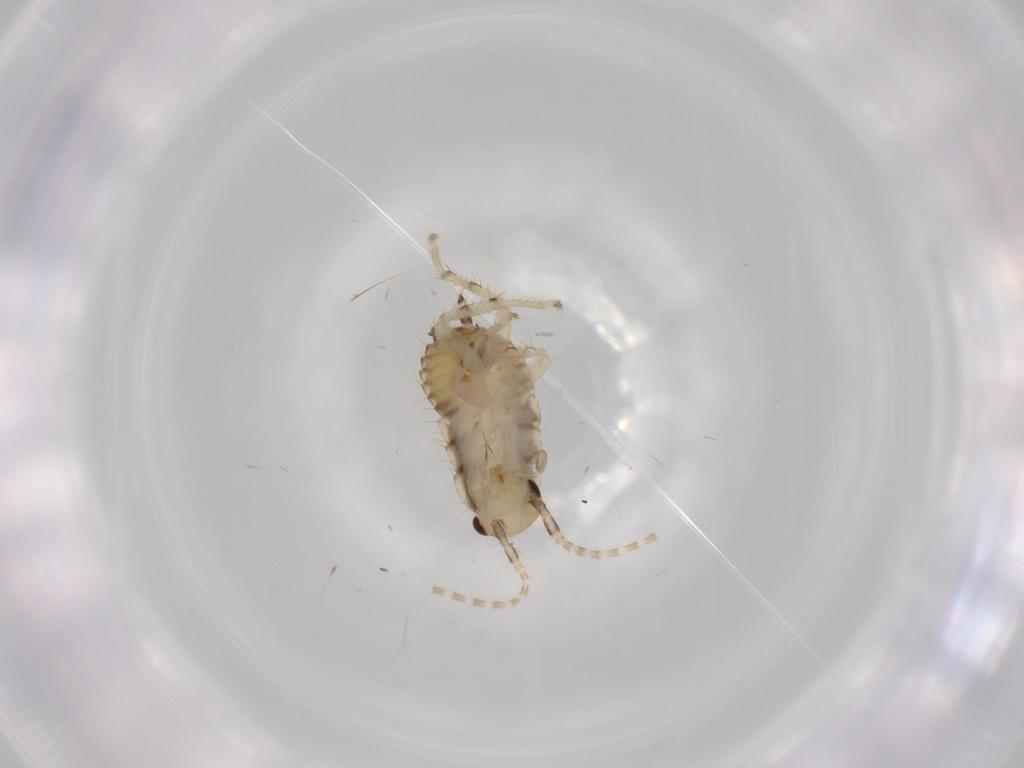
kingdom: Animalia
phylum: Arthropoda
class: Insecta
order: Blattodea
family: Ectobiidae
